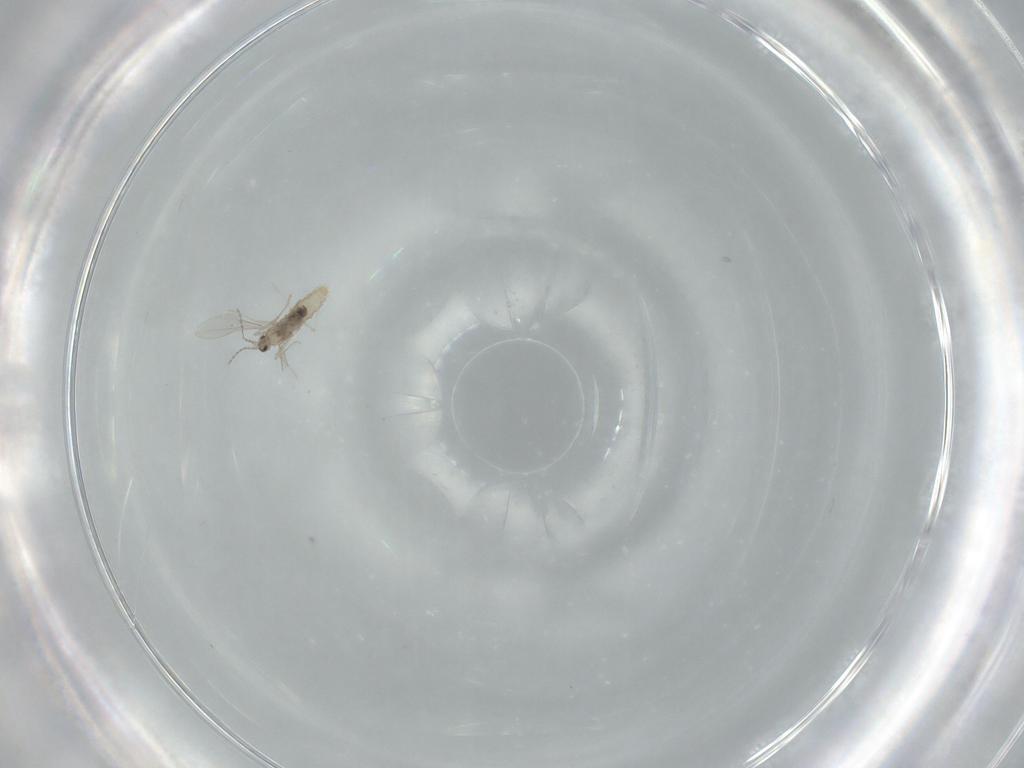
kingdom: Animalia
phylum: Arthropoda
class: Insecta
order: Diptera
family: Cecidomyiidae
